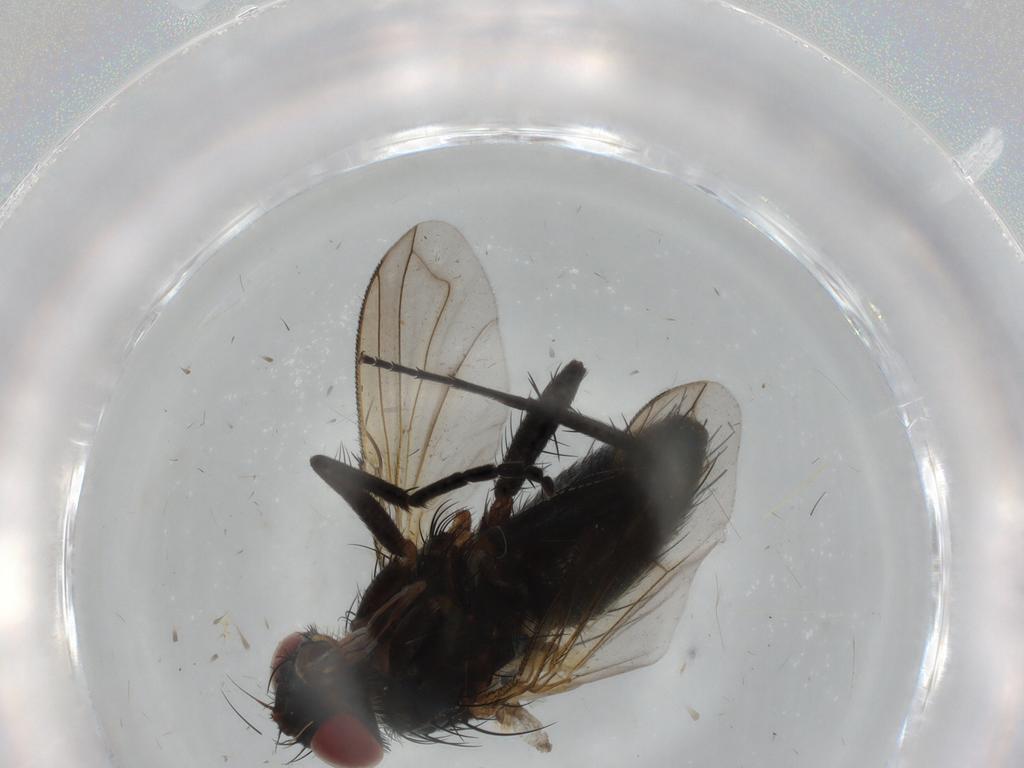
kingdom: Animalia
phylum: Arthropoda
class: Insecta
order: Diptera
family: Cecidomyiidae
